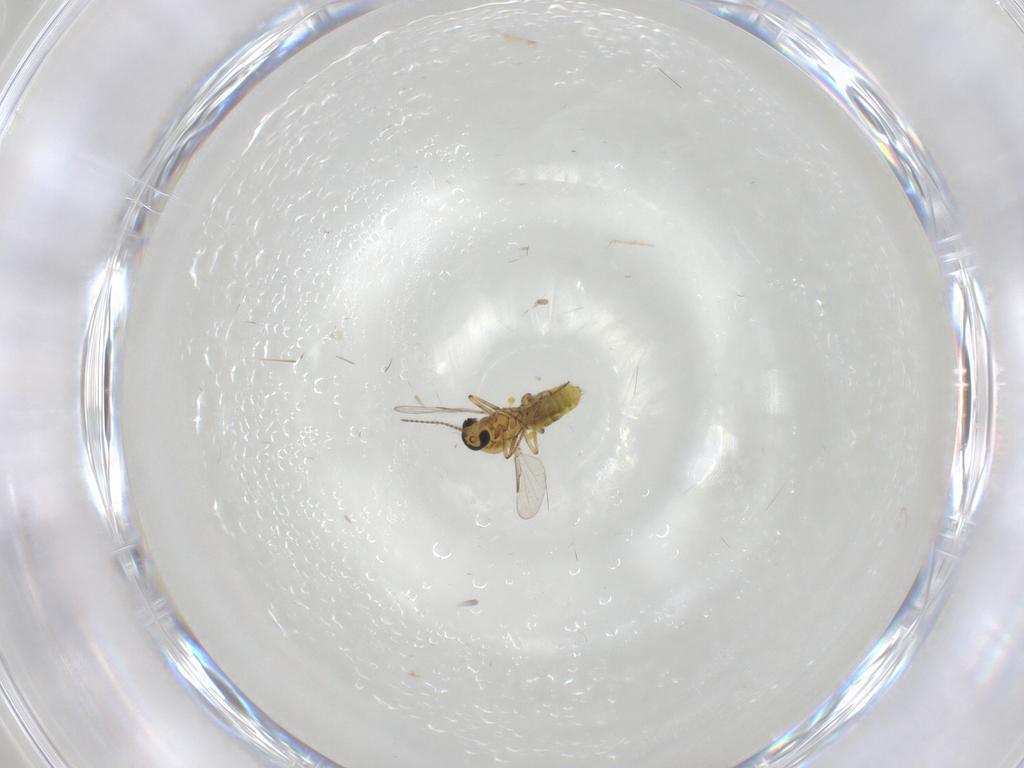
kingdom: Animalia
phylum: Arthropoda
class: Insecta
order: Diptera
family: Ceratopogonidae
